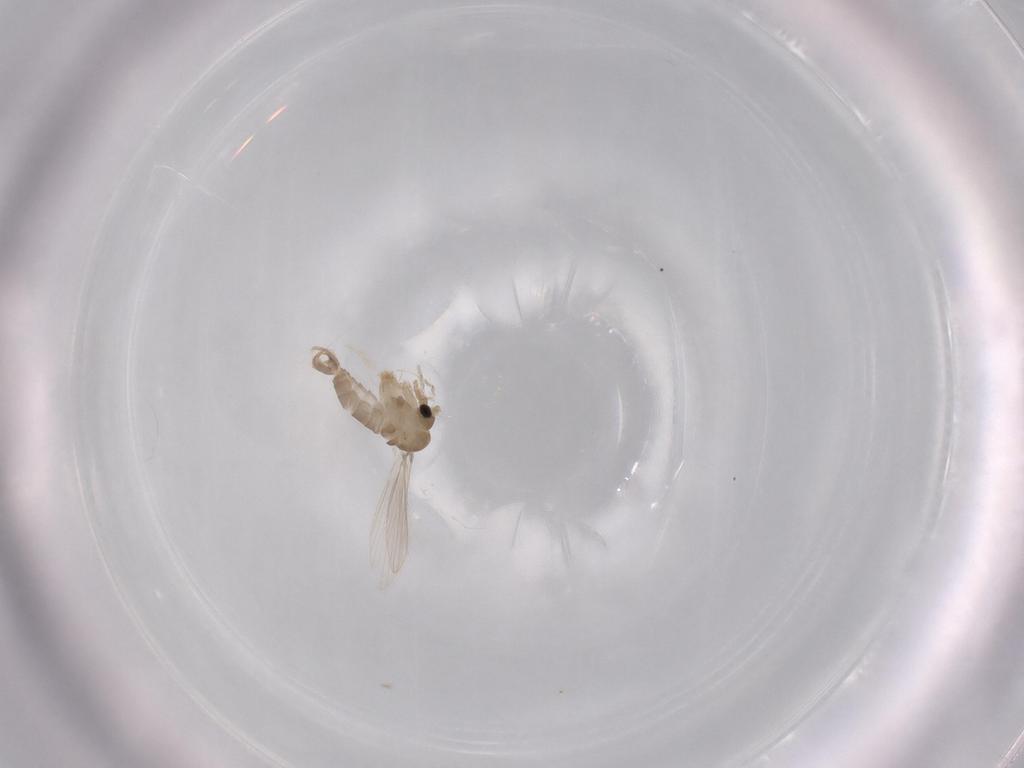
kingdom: Animalia
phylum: Arthropoda
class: Insecta
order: Diptera
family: Psychodidae
